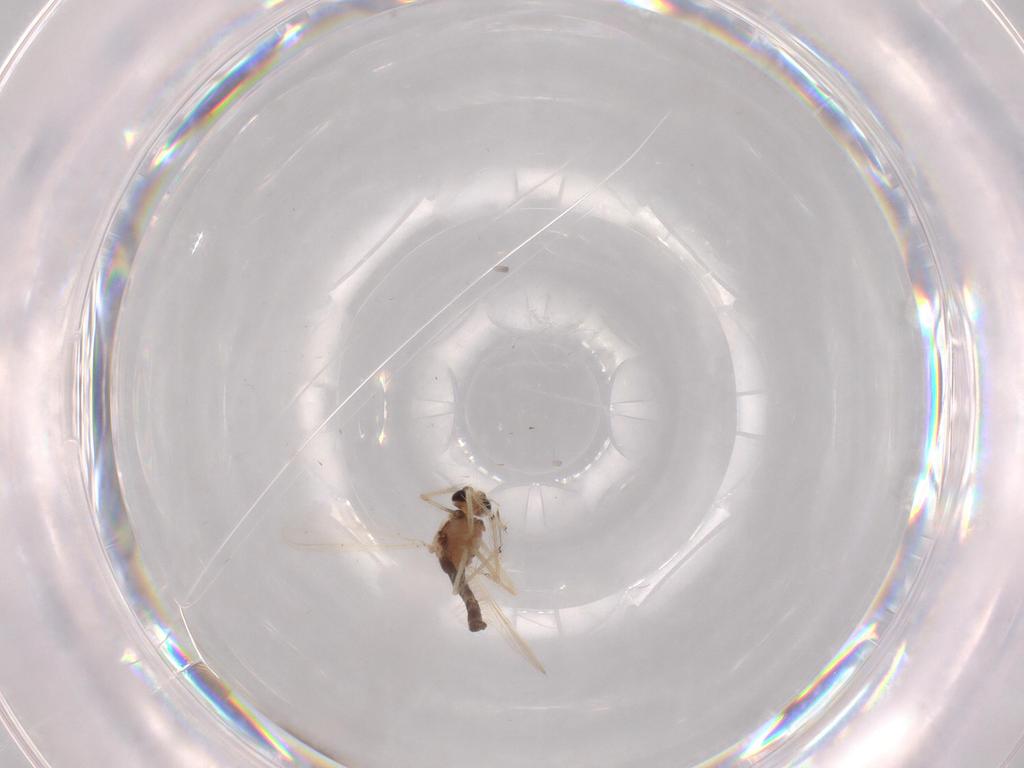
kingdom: Animalia
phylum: Arthropoda
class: Insecta
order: Diptera
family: Chironomidae
